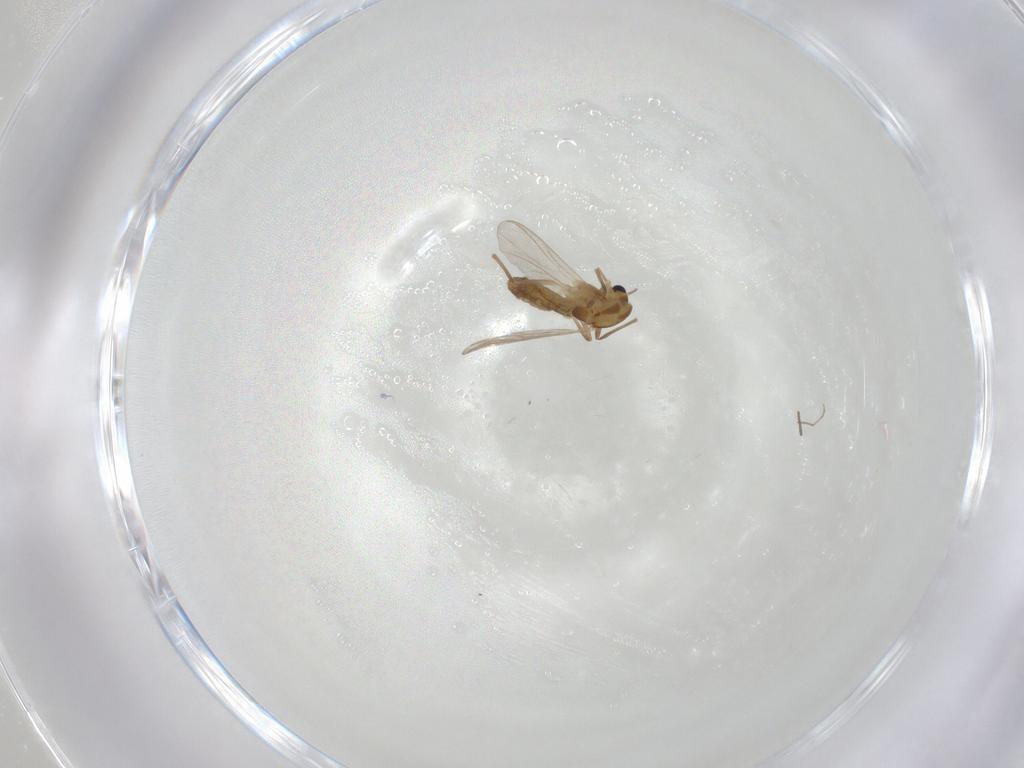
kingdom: Animalia
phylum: Arthropoda
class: Insecta
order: Diptera
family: Chironomidae
